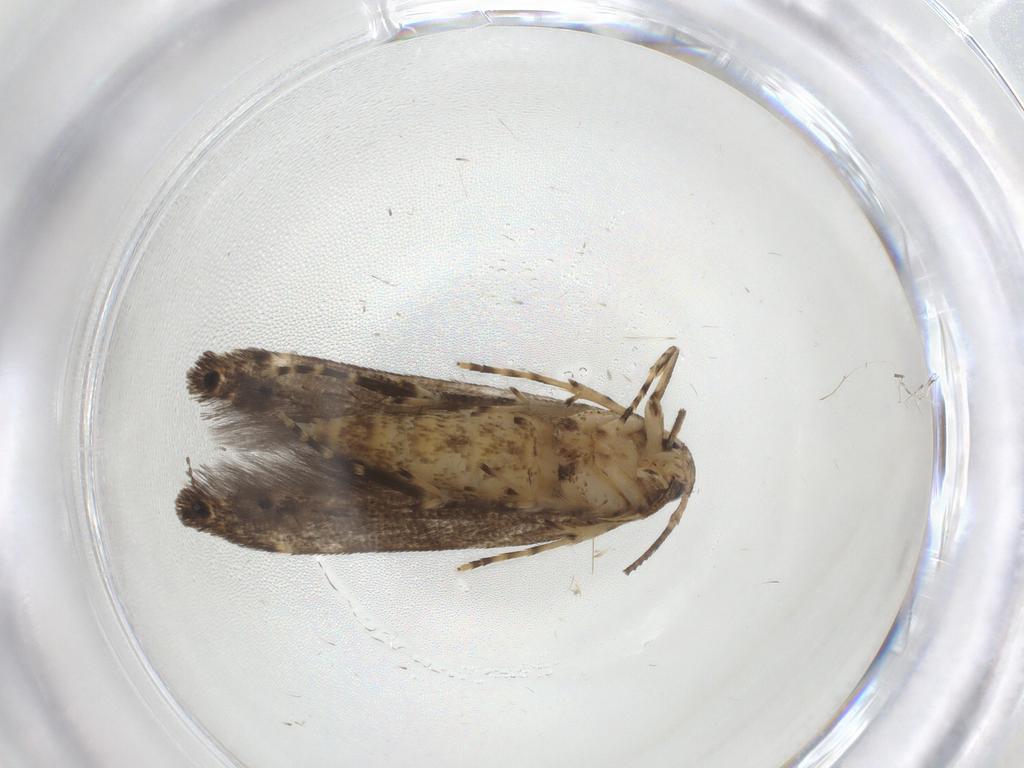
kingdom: Animalia
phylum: Arthropoda
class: Insecta
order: Lepidoptera
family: Cosmopterigidae
